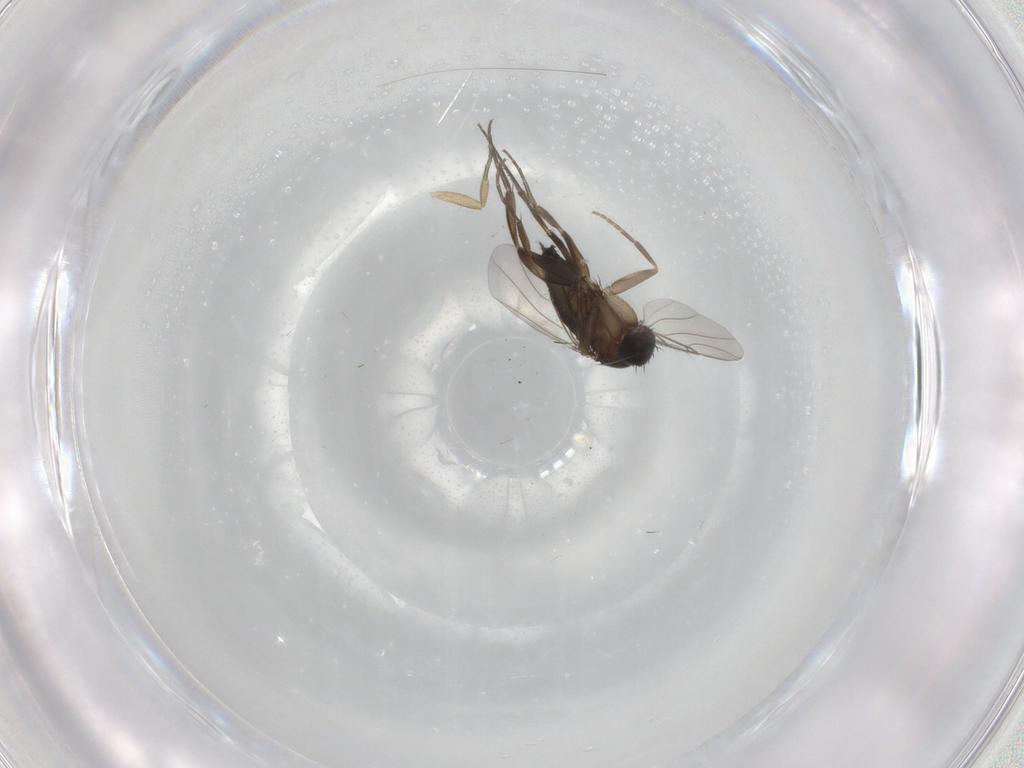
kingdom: Animalia
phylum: Arthropoda
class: Insecta
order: Diptera
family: Phoridae
